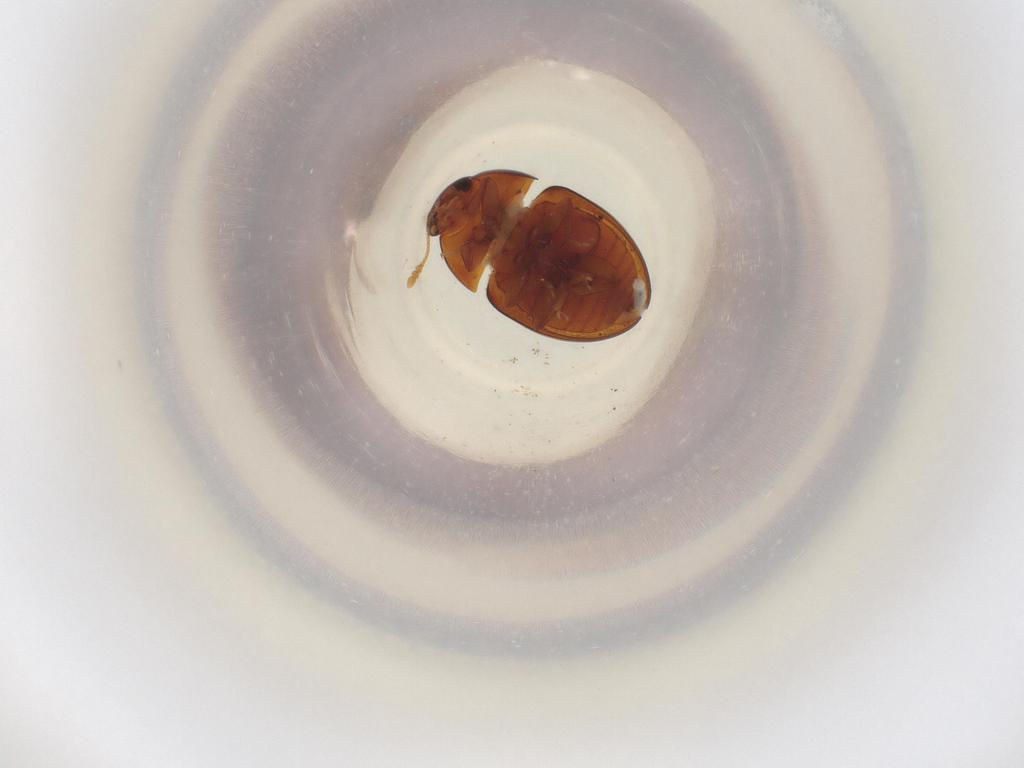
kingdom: Animalia
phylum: Arthropoda
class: Insecta
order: Coleoptera
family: Phalacridae
